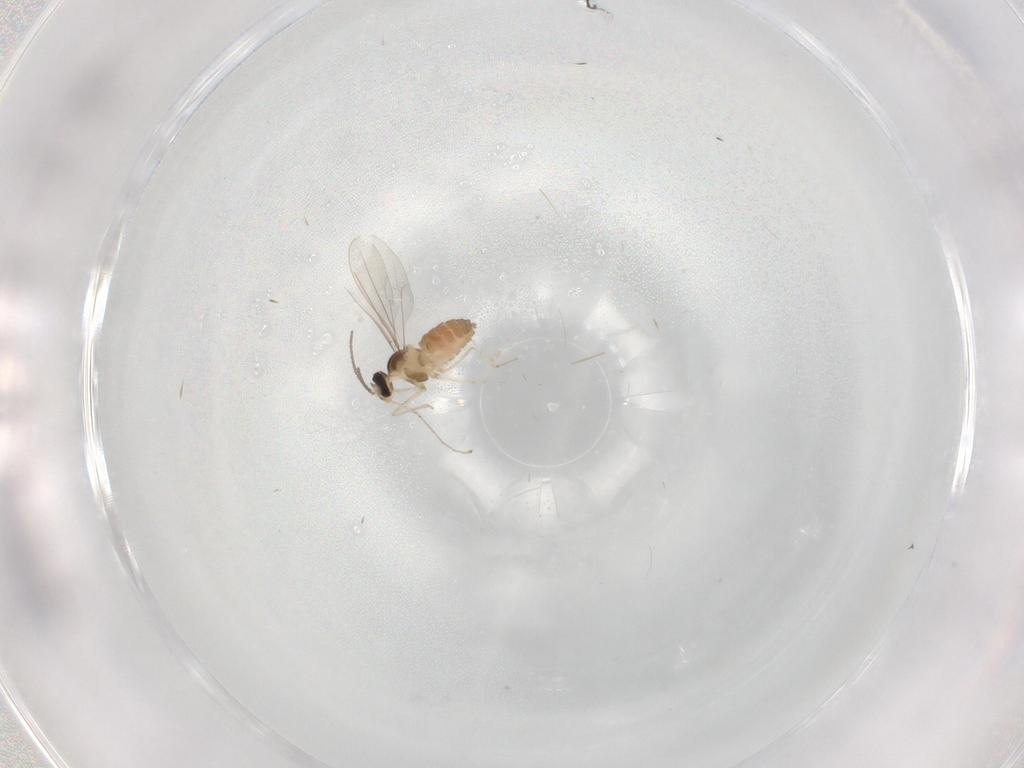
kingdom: Animalia
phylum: Arthropoda
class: Insecta
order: Diptera
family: Cecidomyiidae
